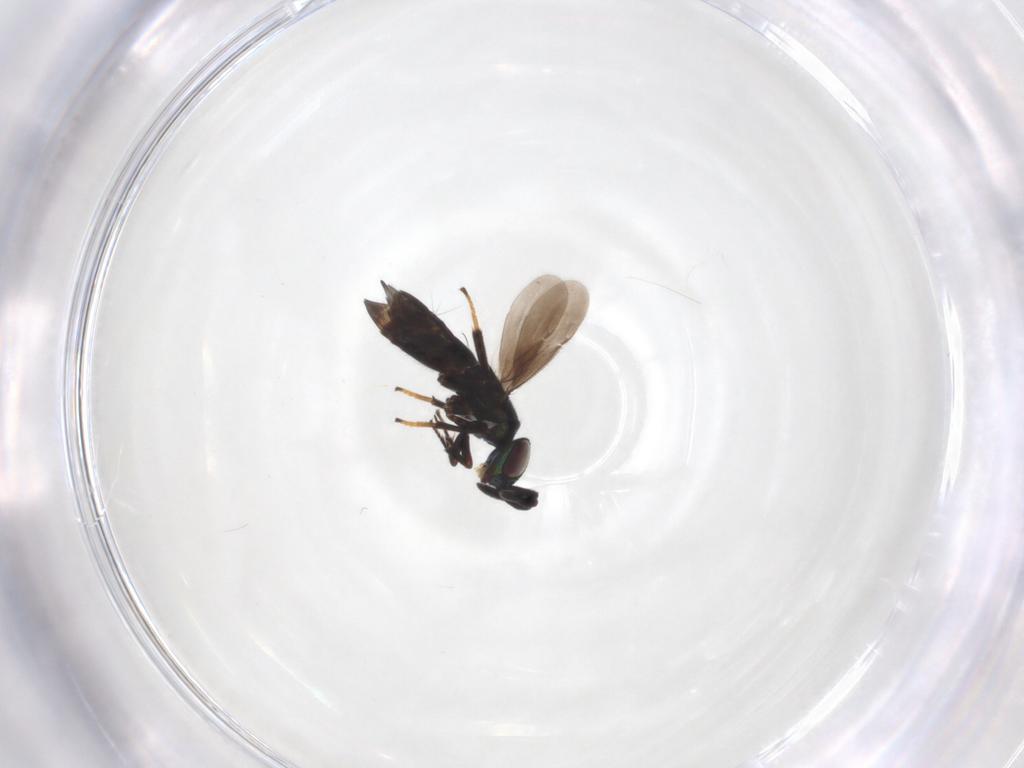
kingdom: Animalia
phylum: Arthropoda
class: Insecta
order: Hymenoptera
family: Encyrtidae
